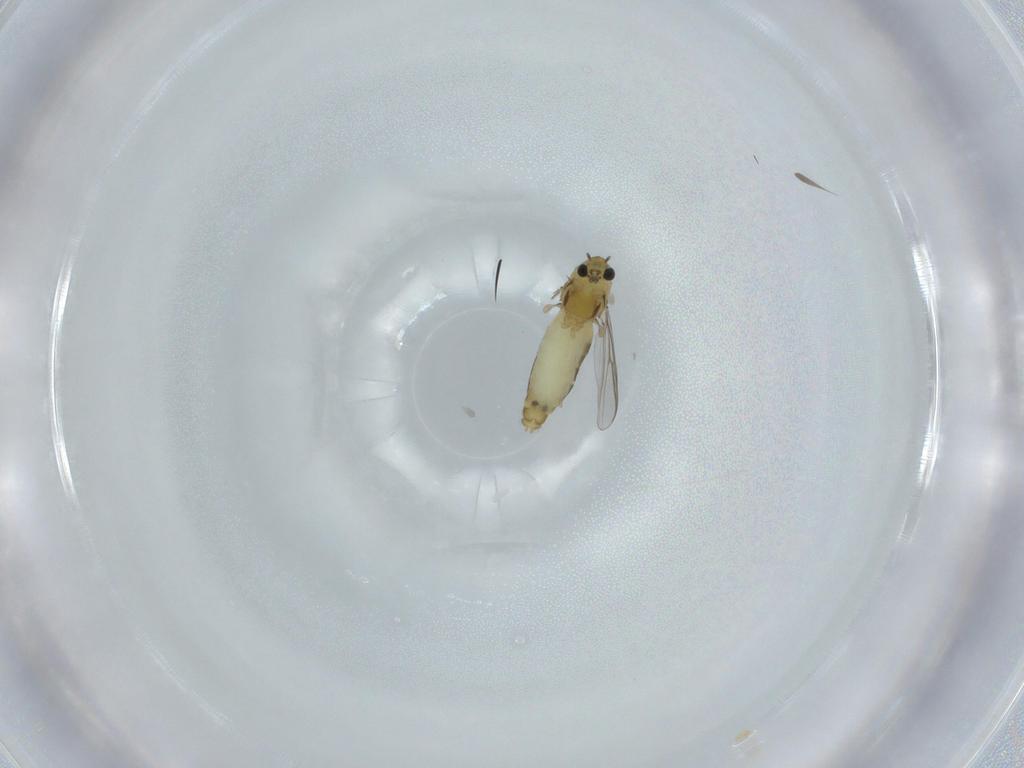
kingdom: Animalia
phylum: Arthropoda
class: Insecta
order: Diptera
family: Chironomidae
